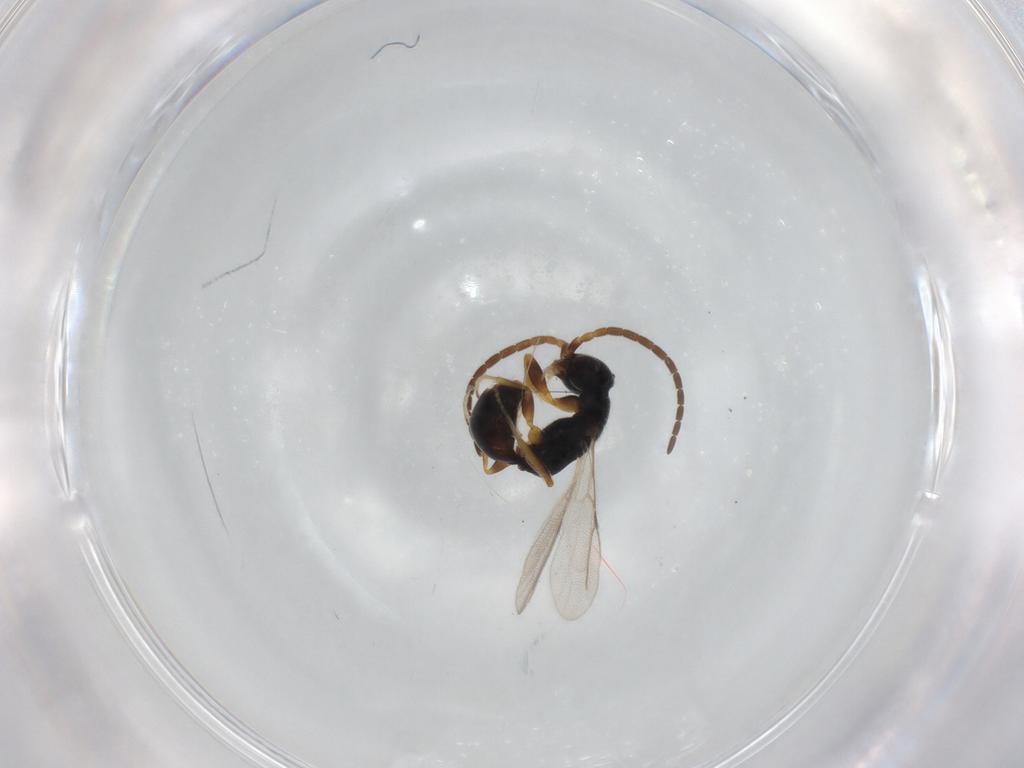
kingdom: Animalia
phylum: Arthropoda
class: Insecta
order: Hymenoptera
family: Bethylidae
